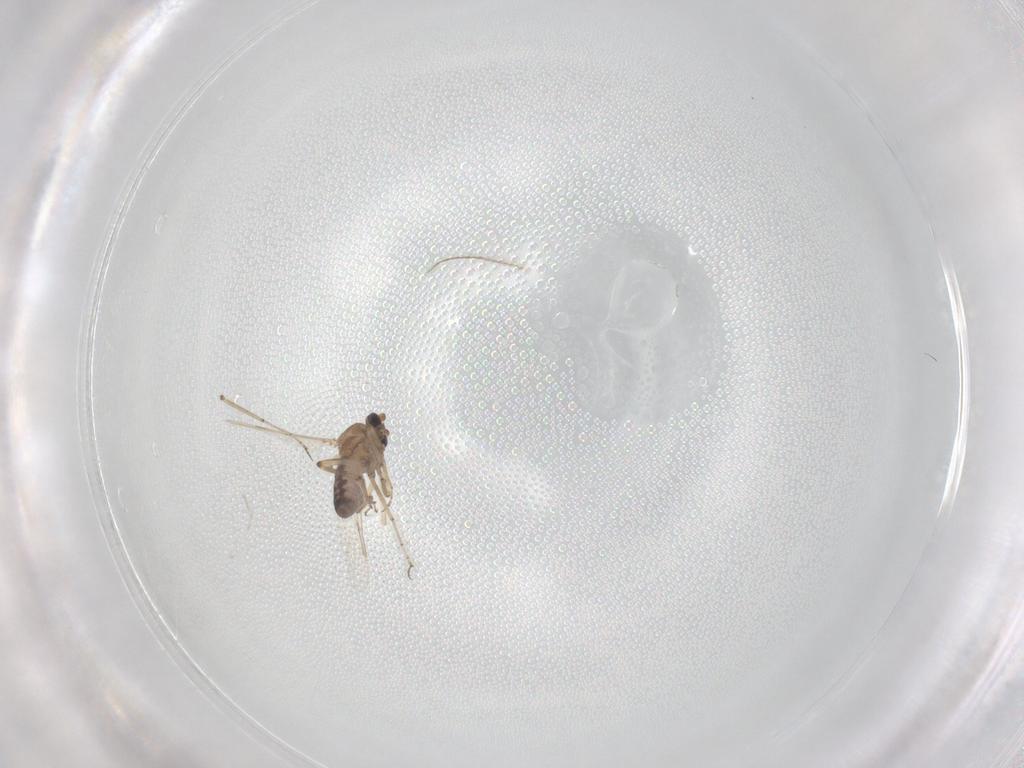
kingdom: Animalia
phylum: Arthropoda
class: Insecta
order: Diptera
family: Ceratopogonidae
